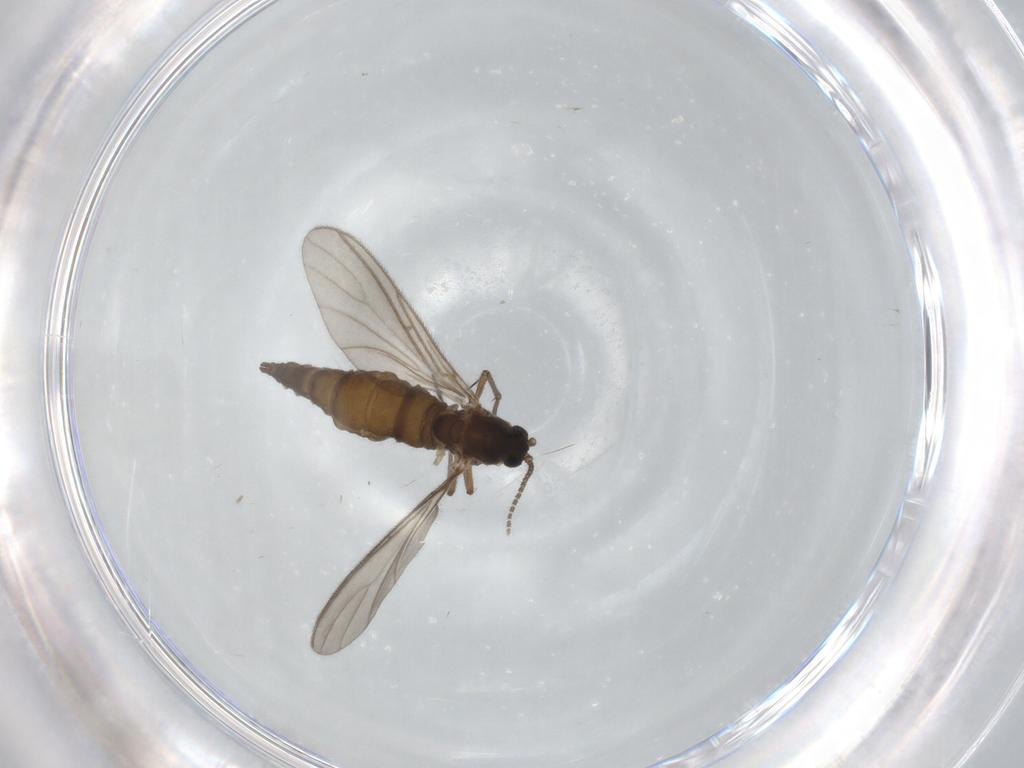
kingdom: Animalia
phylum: Arthropoda
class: Insecta
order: Diptera
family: Sciaridae
